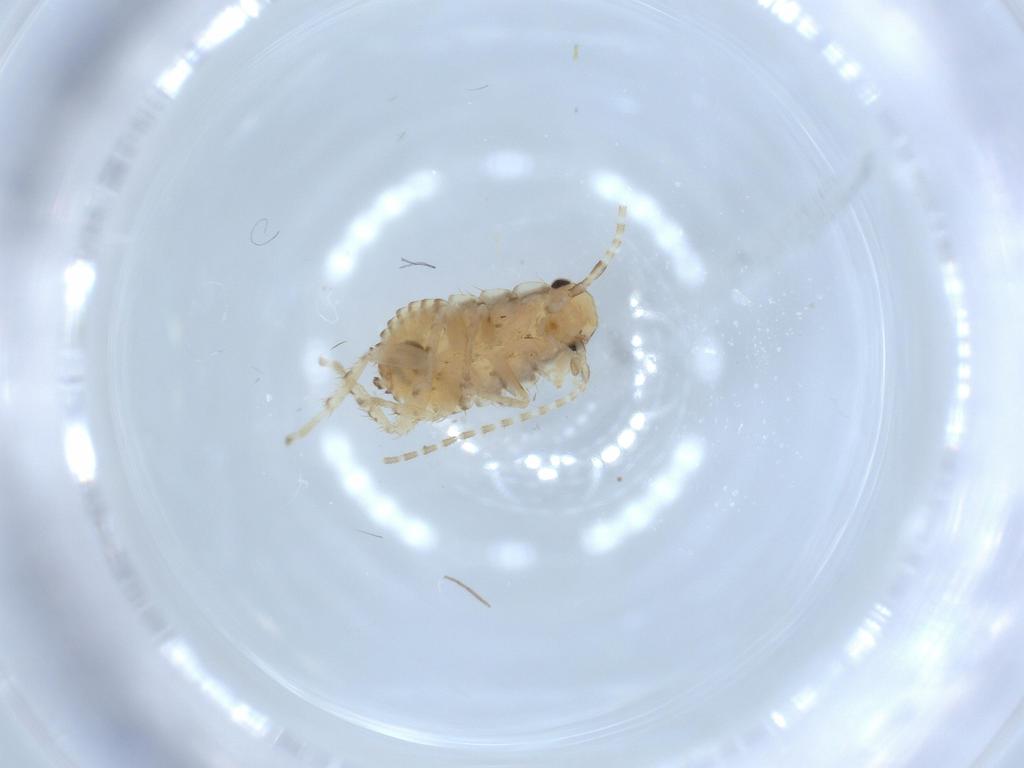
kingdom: Animalia
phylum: Arthropoda
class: Insecta
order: Blattodea
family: Ectobiidae
